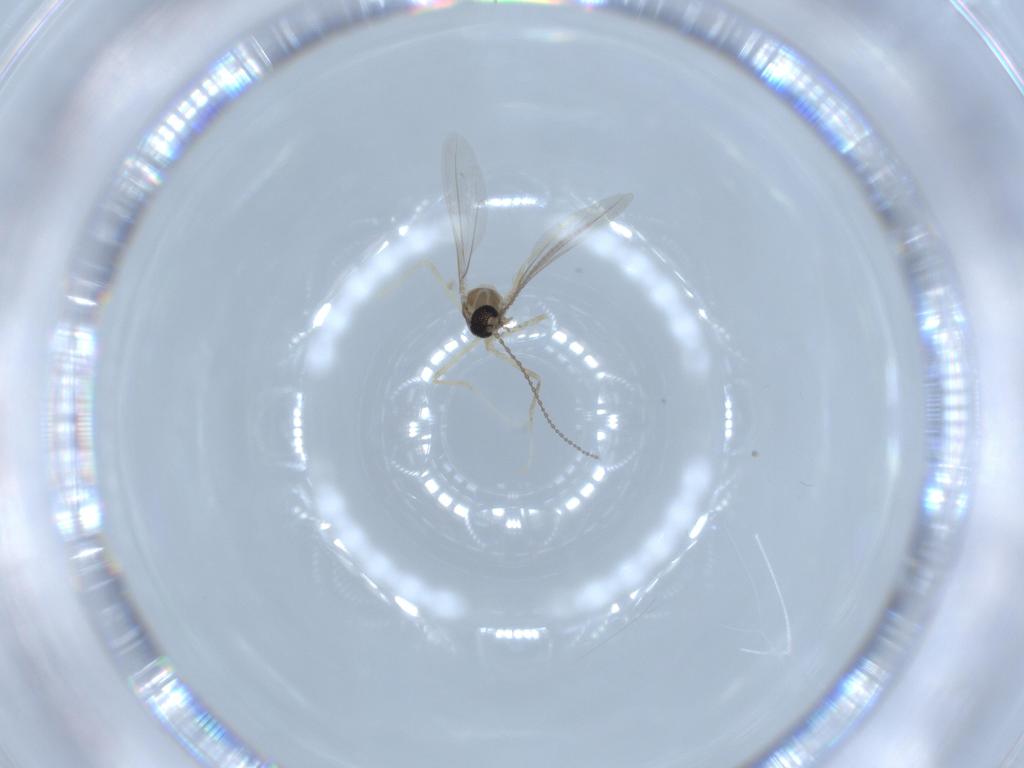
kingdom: Animalia
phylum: Arthropoda
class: Insecta
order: Diptera
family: Cecidomyiidae
